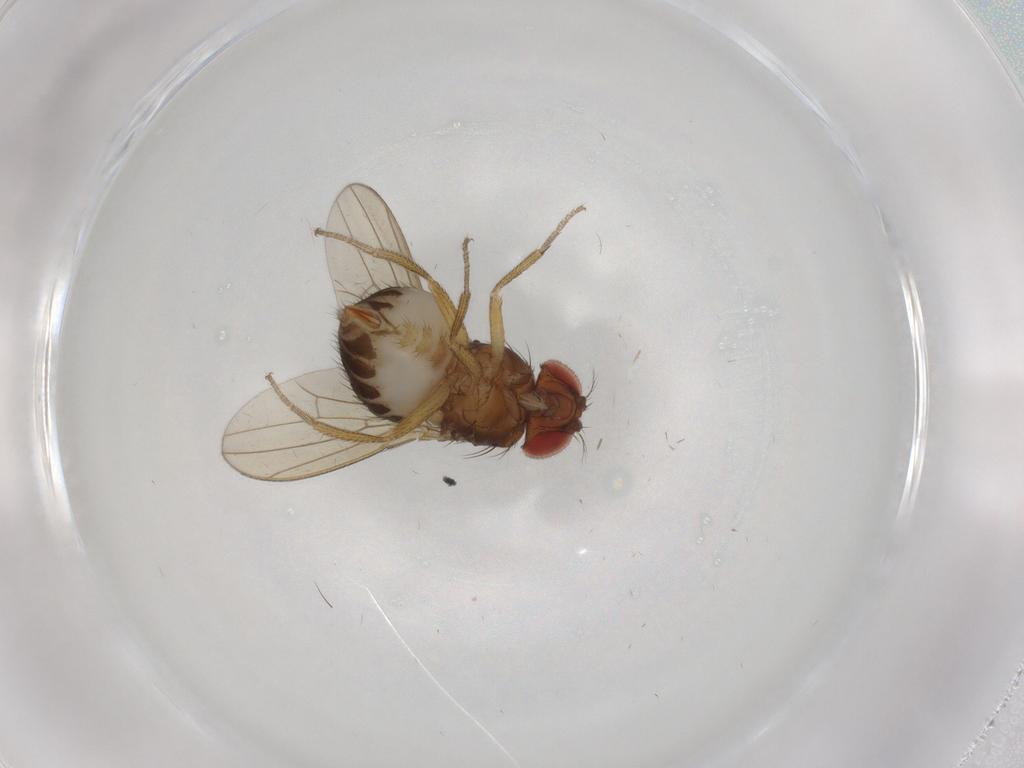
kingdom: Animalia
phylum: Arthropoda
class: Insecta
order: Diptera
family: Drosophilidae
